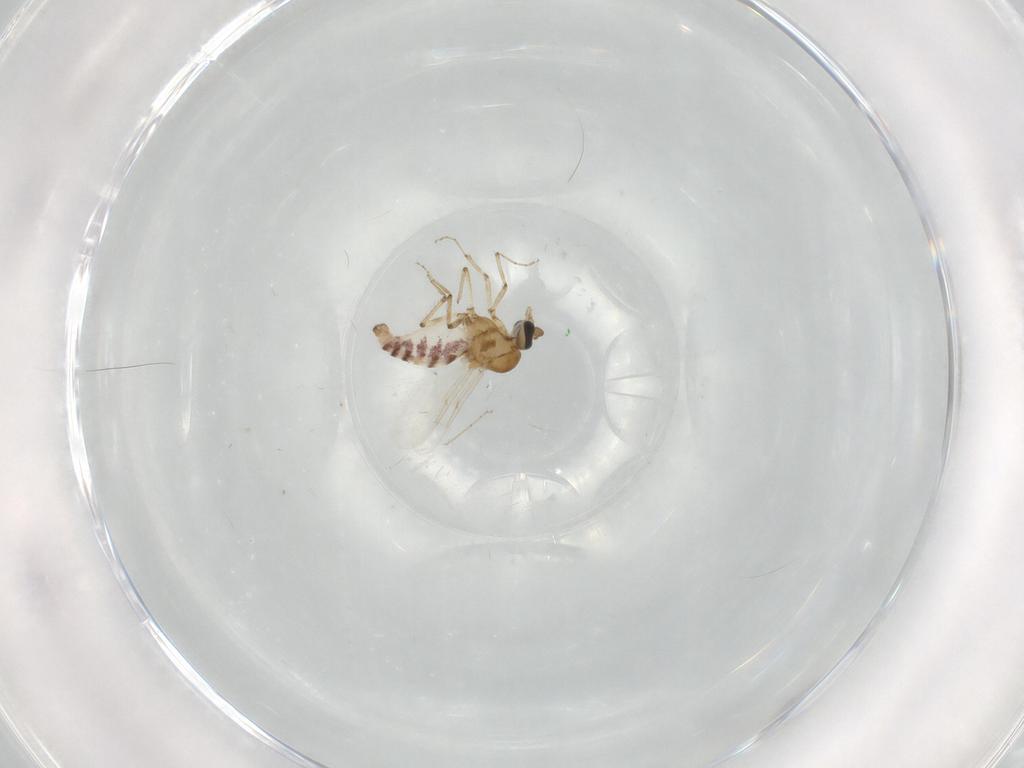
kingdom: Animalia
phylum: Arthropoda
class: Insecta
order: Diptera
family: Ceratopogonidae
